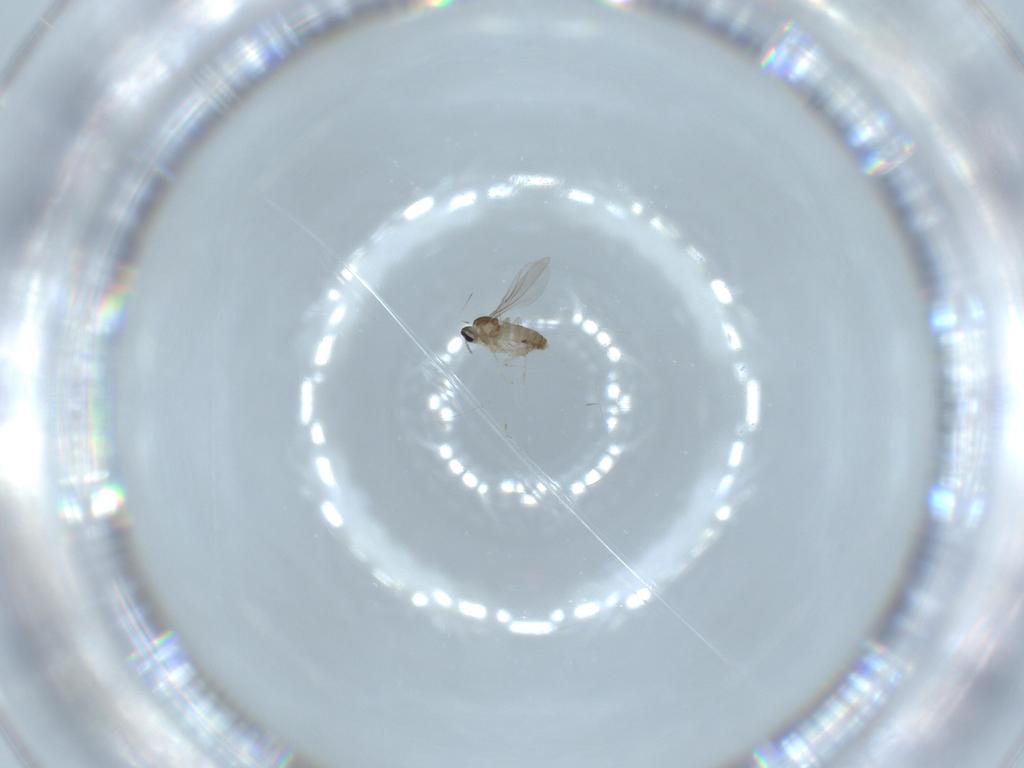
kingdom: Animalia
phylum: Arthropoda
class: Insecta
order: Diptera
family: Cecidomyiidae
